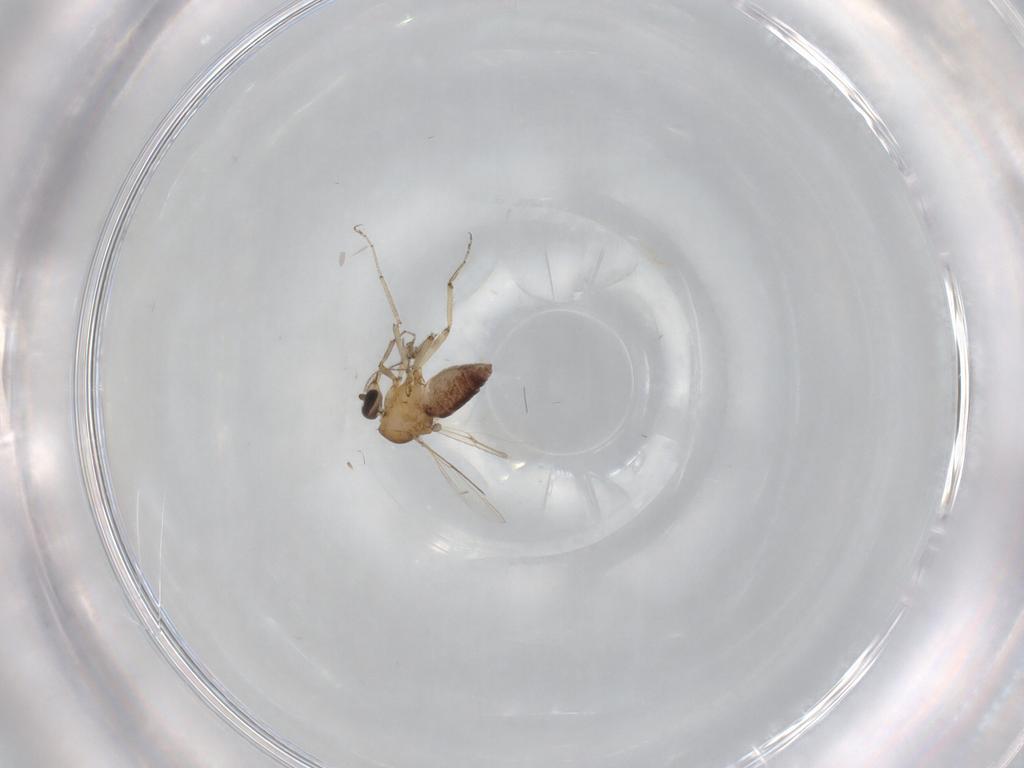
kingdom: Animalia
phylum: Arthropoda
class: Insecta
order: Diptera
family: Ceratopogonidae
